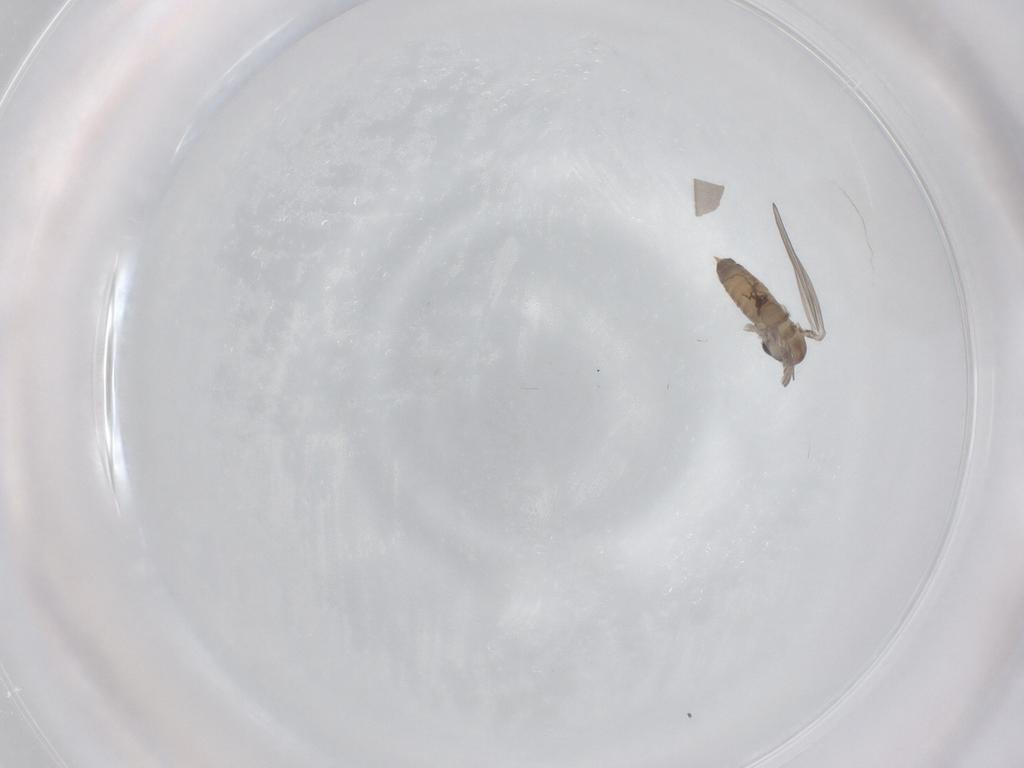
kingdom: Animalia
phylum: Arthropoda
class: Insecta
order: Diptera
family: Psychodidae
